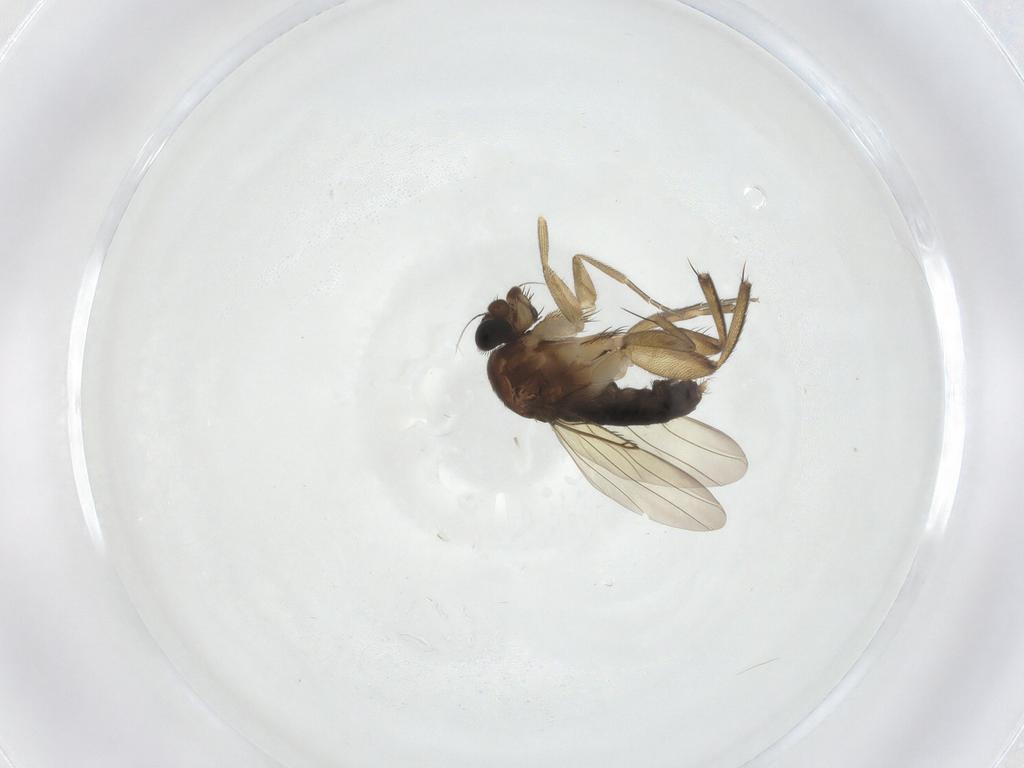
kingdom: Animalia
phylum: Arthropoda
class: Insecta
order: Diptera
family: Phoridae
